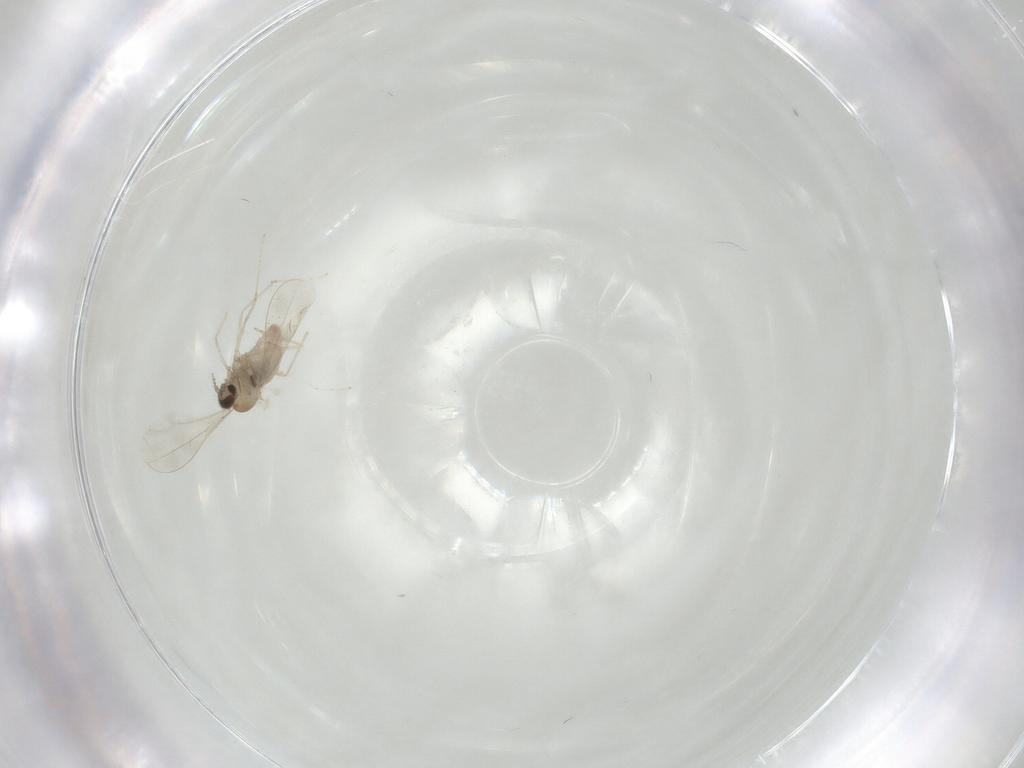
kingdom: Animalia
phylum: Arthropoda
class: Insecta
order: Diptera
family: Cecidomyiidae
